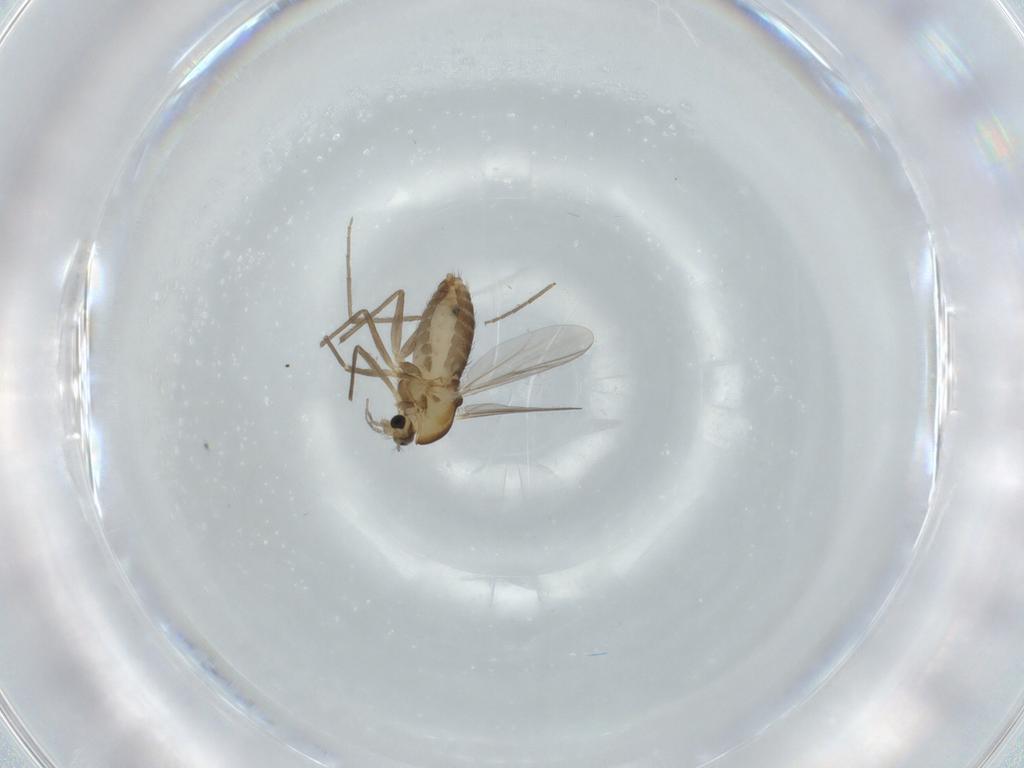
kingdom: Animalia
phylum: Arthropoda
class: Insecta
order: Diptera
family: Chironomidae
